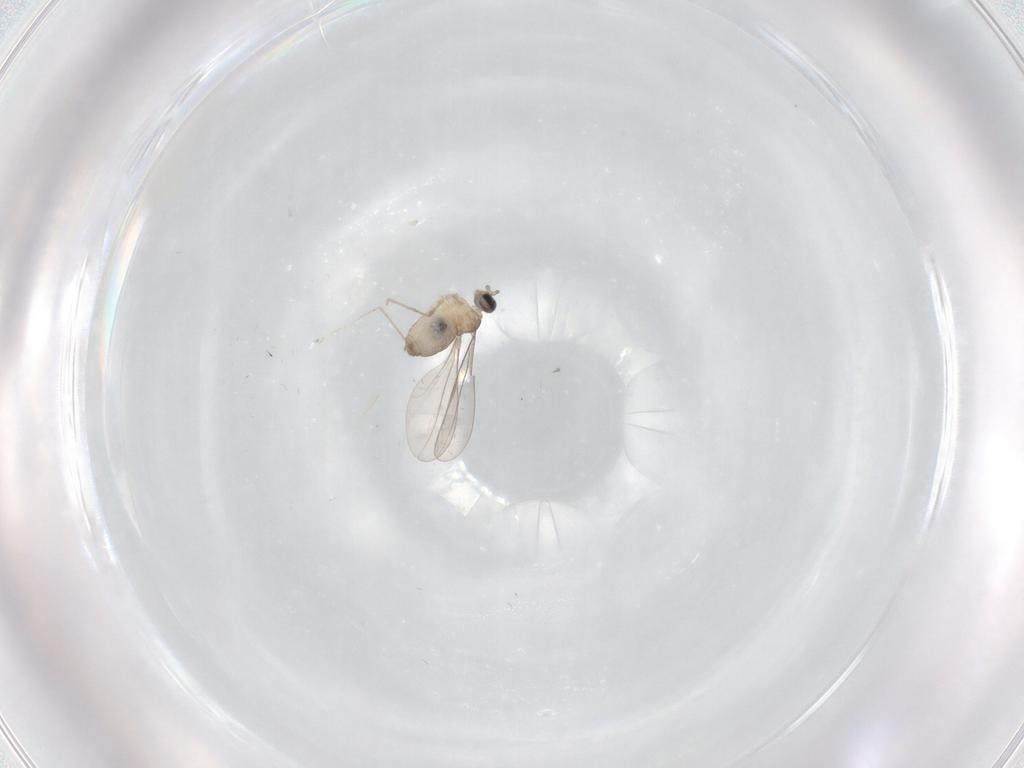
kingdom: Animalia
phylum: Arthropoda
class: Insecta
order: Diptera
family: Cecidomyiidae
